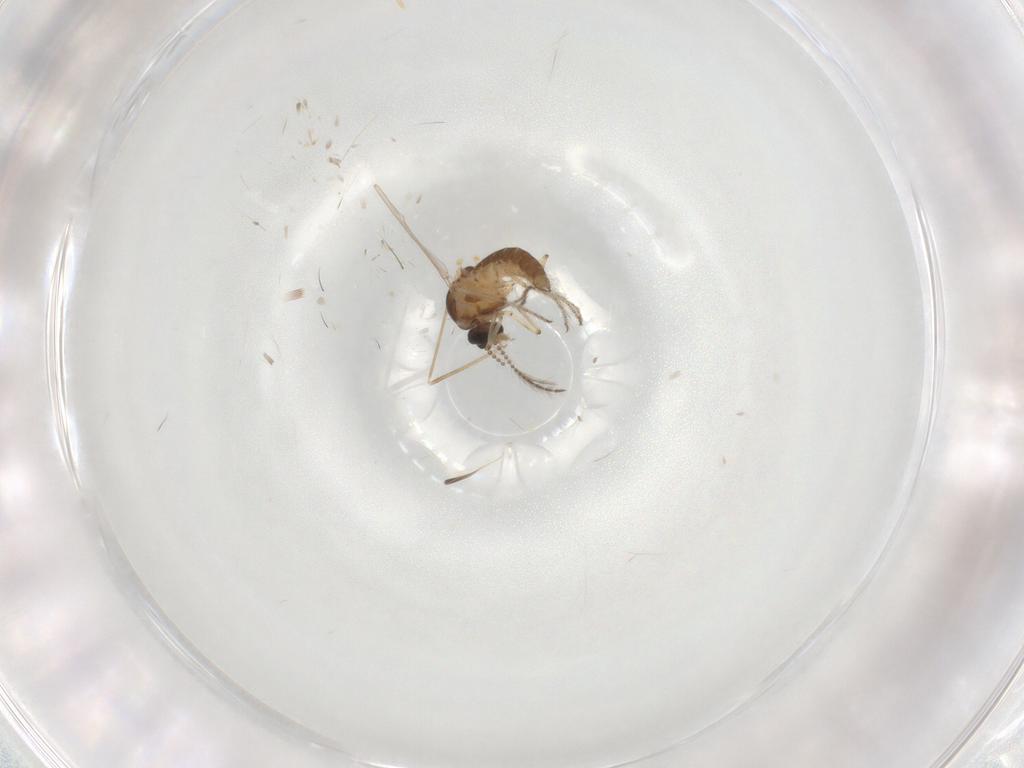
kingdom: Animalia
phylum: Arthropoda
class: Insecta
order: Diptera
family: Ceratopogonidae
